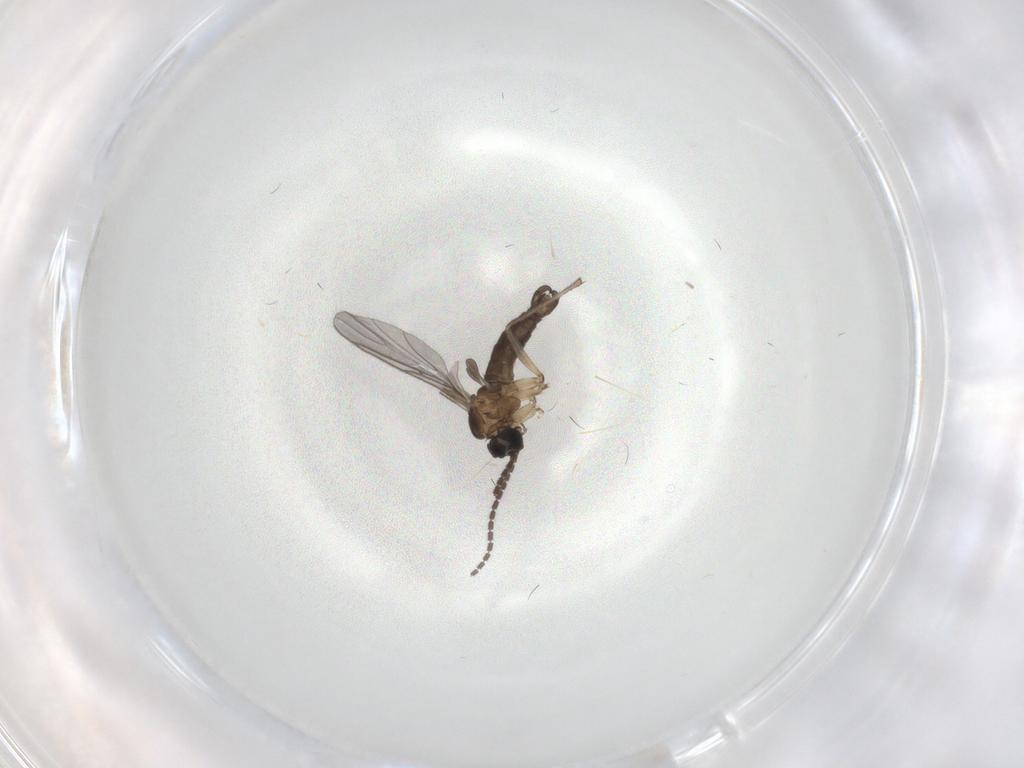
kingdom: Animalia
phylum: Arthropoda
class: Insecta
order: Diptera
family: Sciaridae
